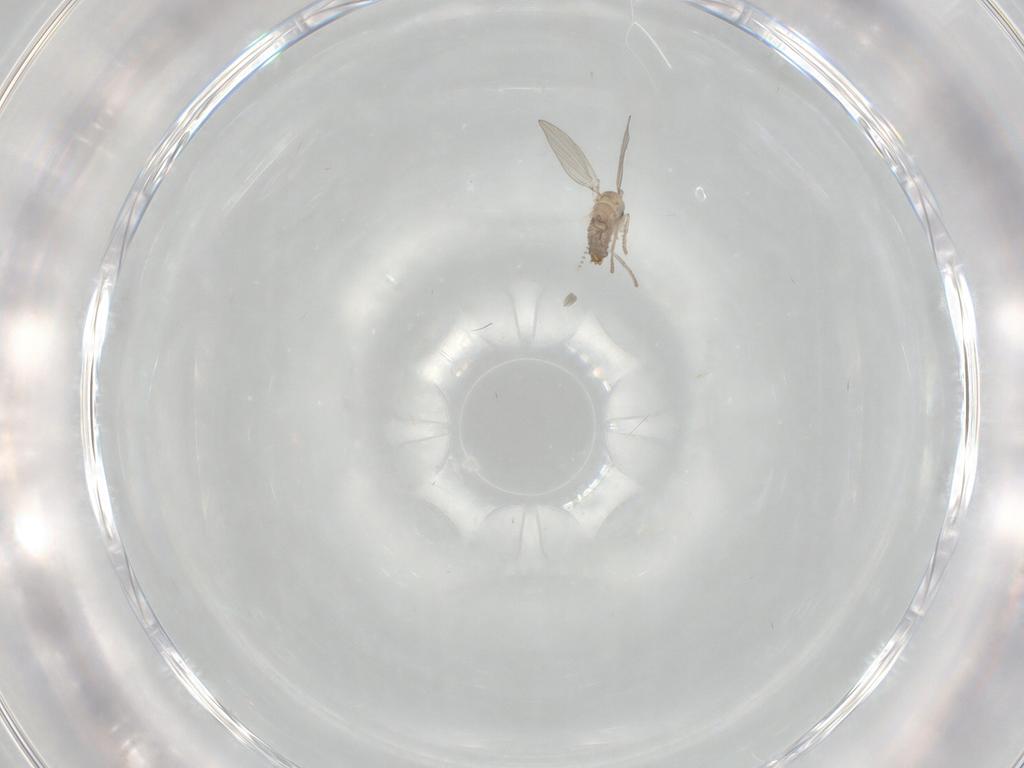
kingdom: Animalia
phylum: Arthropoda
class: Insecta
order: Diptera
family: Psychodidae
